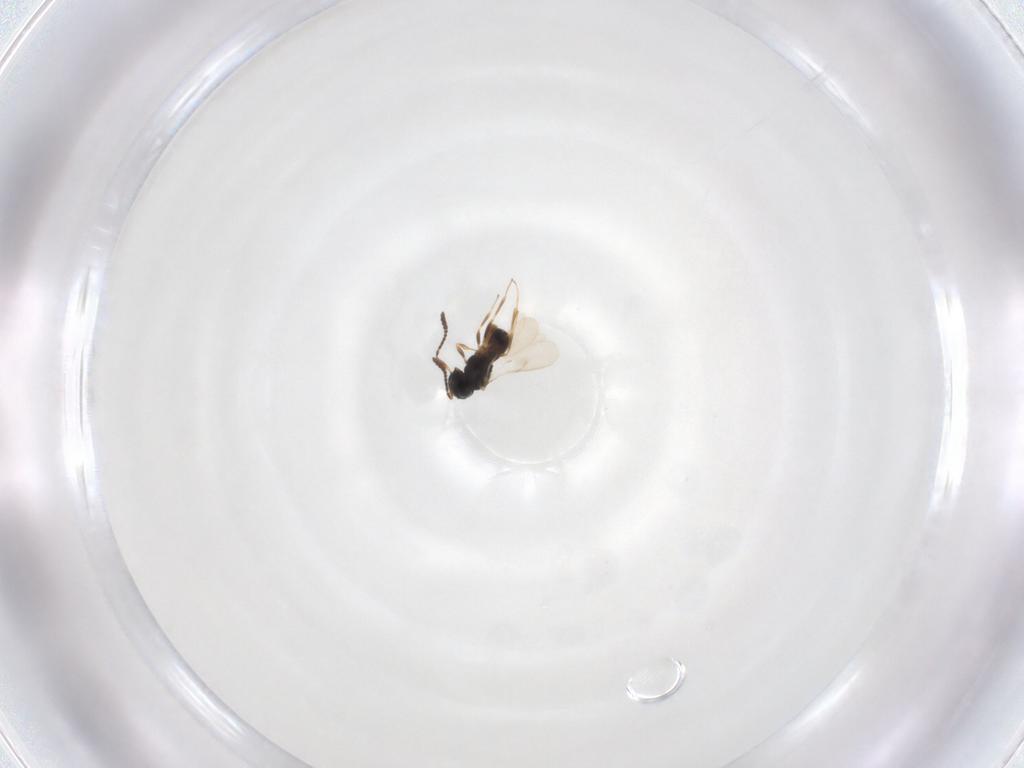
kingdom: Animalia
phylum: Arthropoda
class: Insecta
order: Hymenoptera
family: Scelionidae
